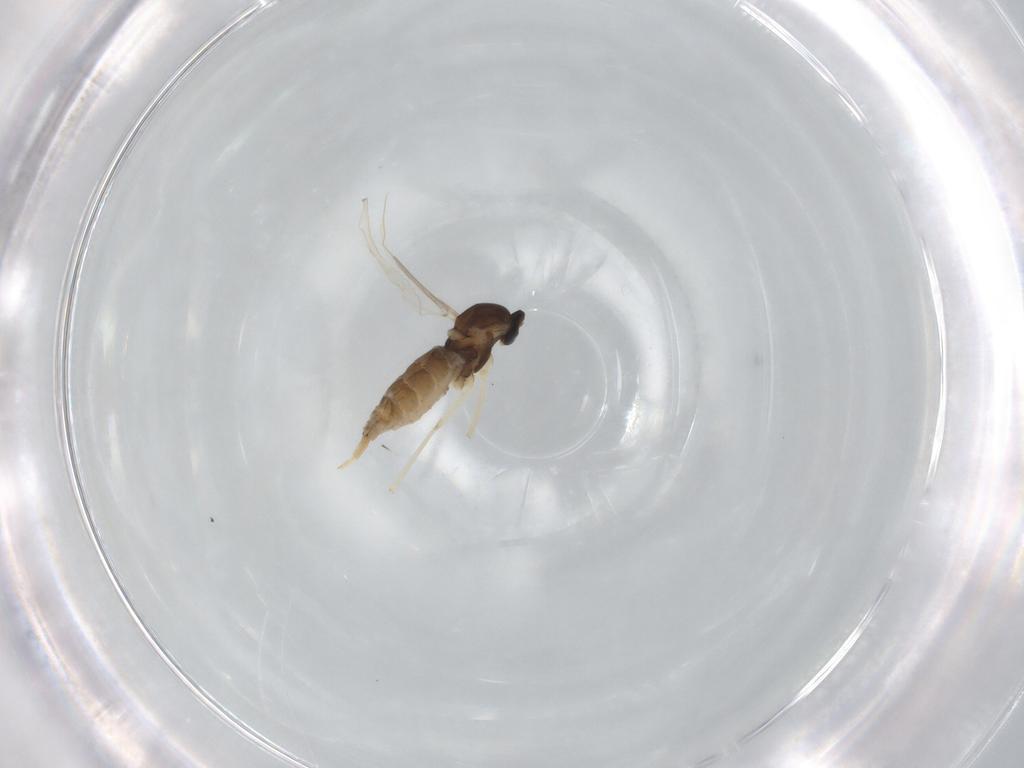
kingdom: Animalia
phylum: Arthropoda
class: Insecta
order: Diptera
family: Cecidomyiidae
